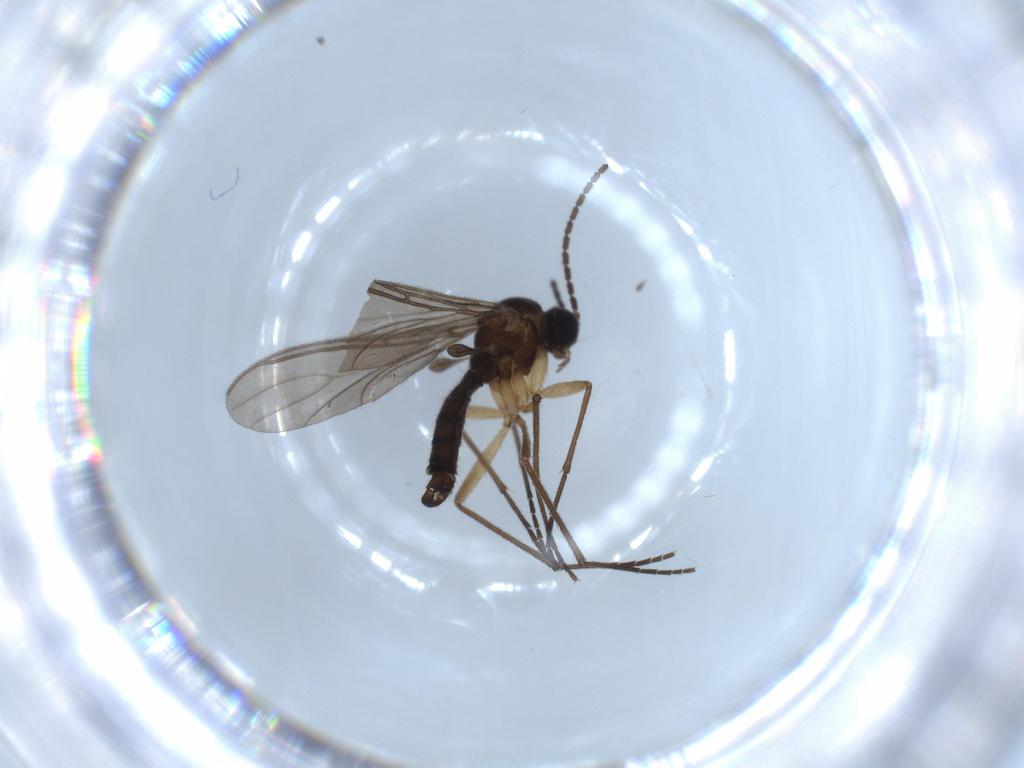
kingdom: Animalia
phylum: Arthropoda
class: Insecta
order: Diptera
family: Sciaridae
